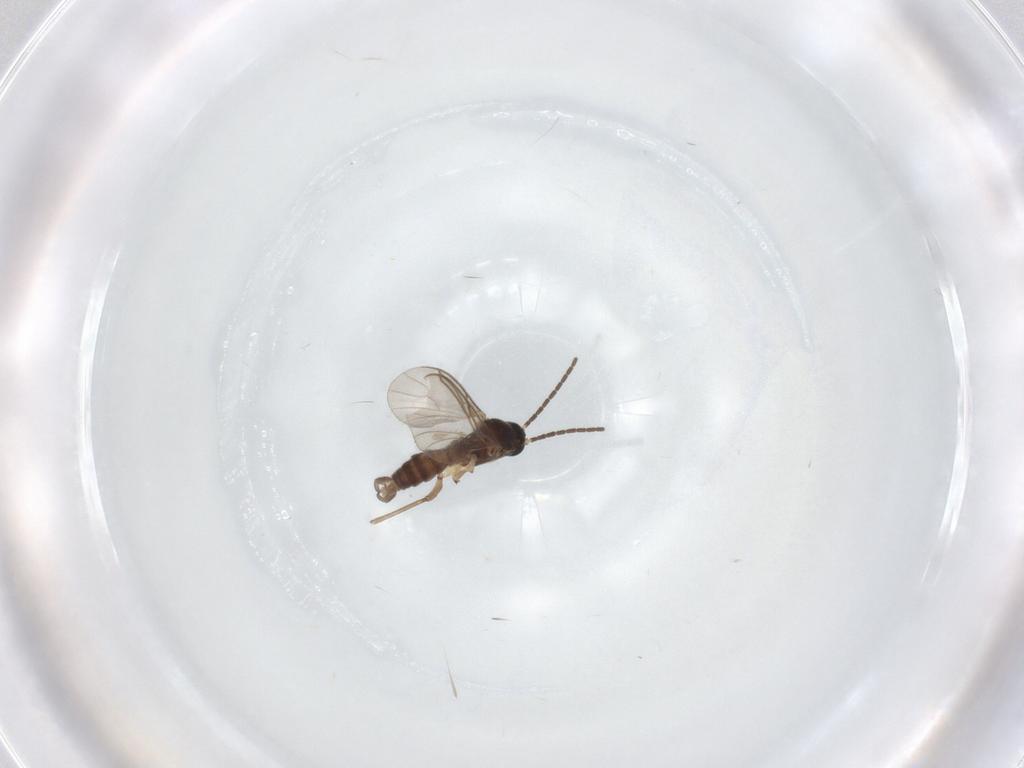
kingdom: Animalia
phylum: Arthropoda
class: Insecta
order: Diptera
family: Sciaridae
